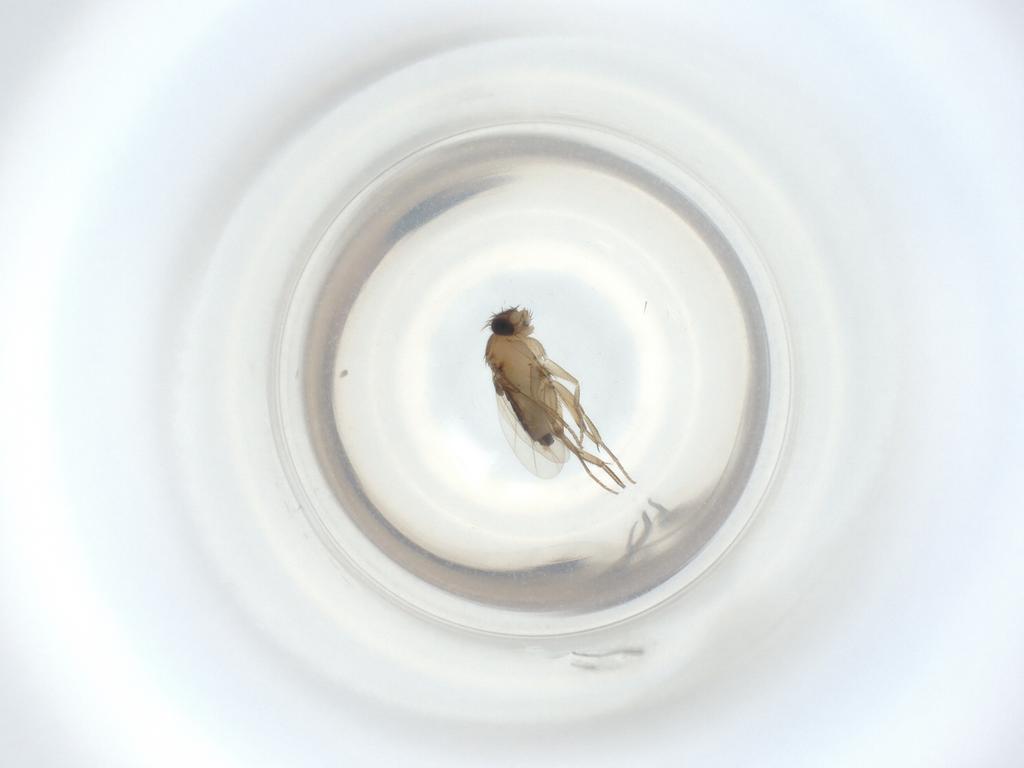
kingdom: Animalia
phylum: Arthropoda
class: Insecta
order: Diptera
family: Phoridae
